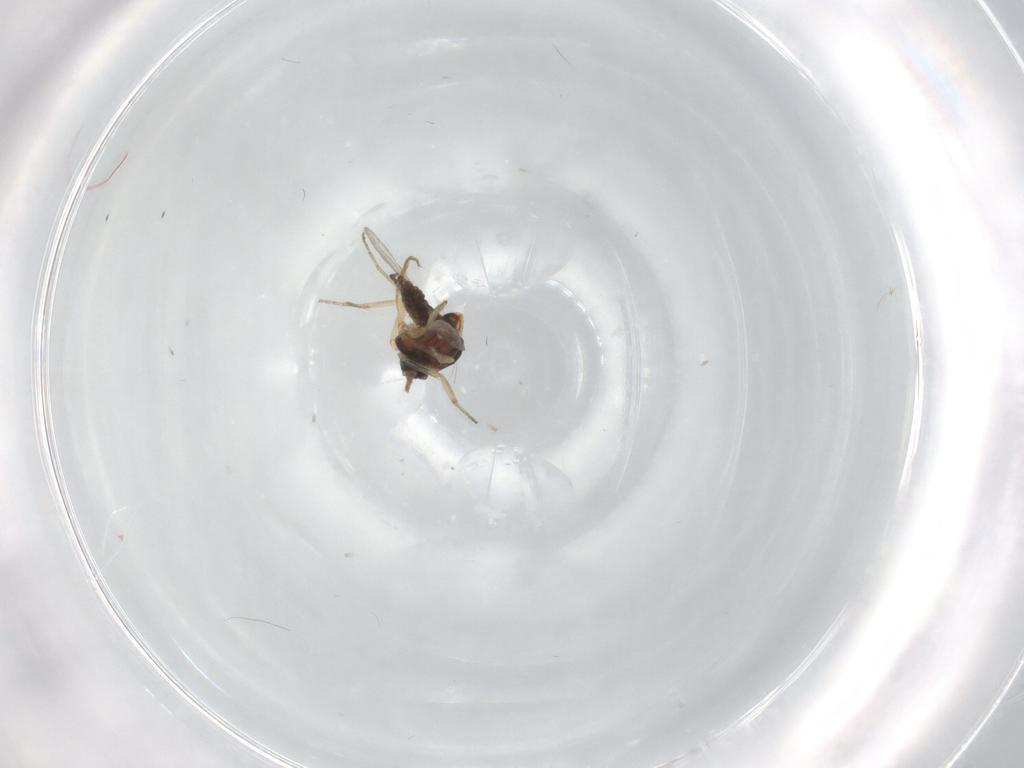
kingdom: Animalia
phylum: Arthropoda
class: Insecta
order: Diptera
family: Ceratopogonidae
